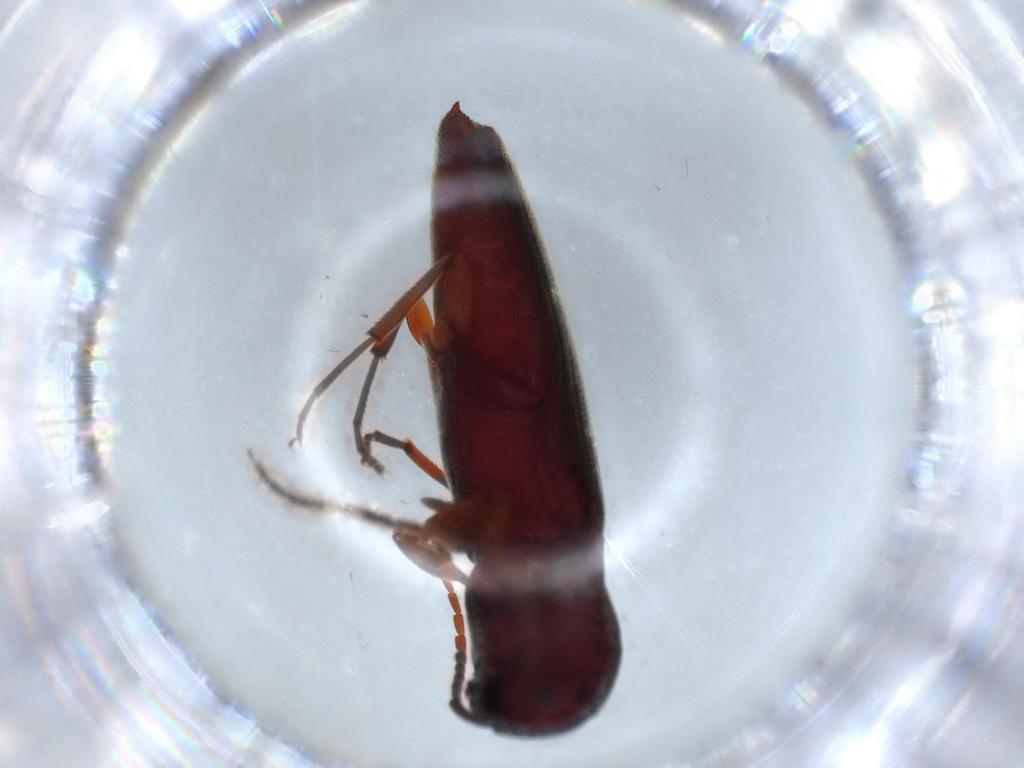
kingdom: Animalia
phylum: Arthropoda
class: Insecta
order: Coleoptera
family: Eucnemidae
